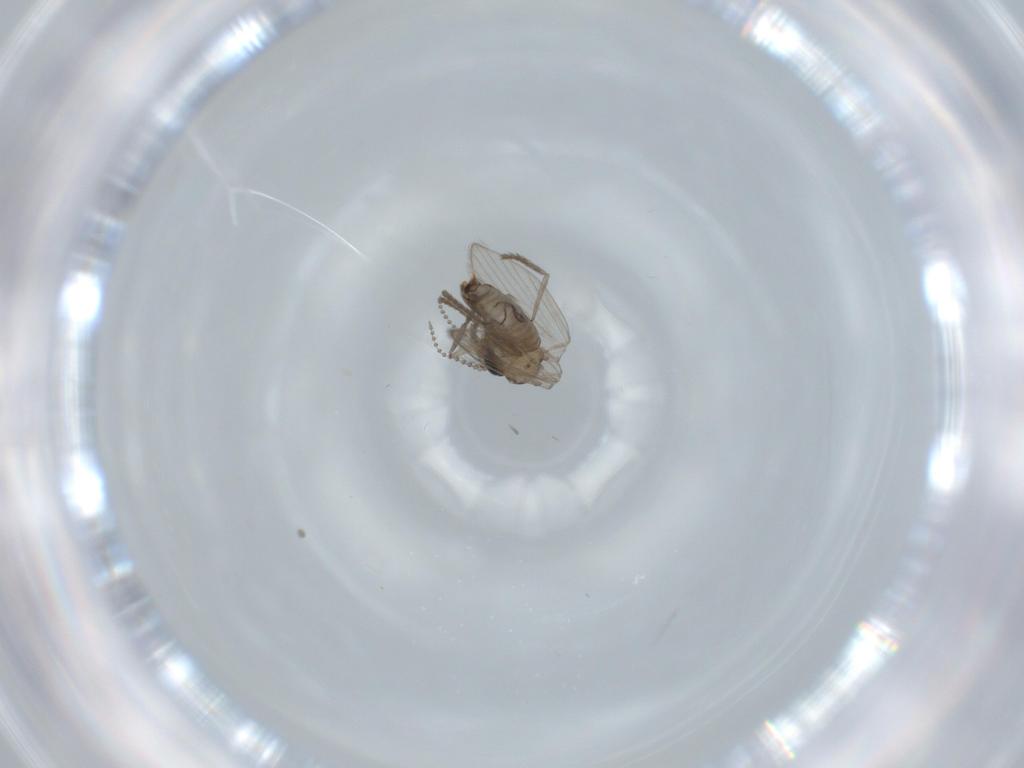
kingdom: Animalia
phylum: Arthropoda
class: Insecta
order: Diptera
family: Psychodidae
